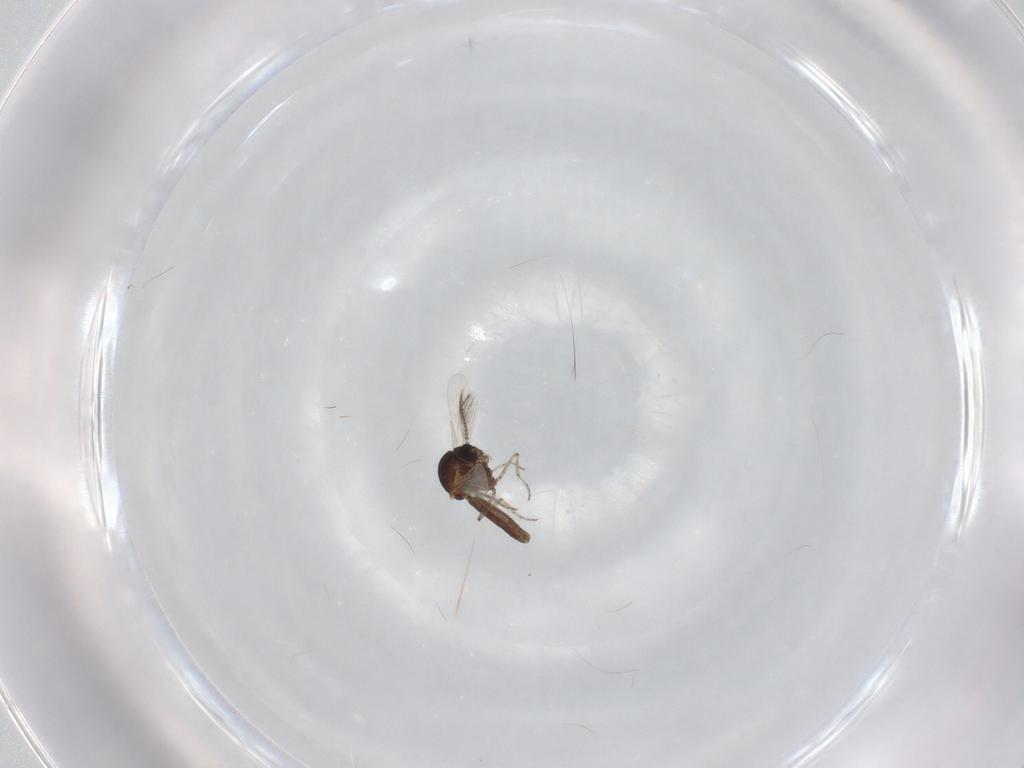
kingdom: Animalia
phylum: Arthropoda
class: Insecta
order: Diptera
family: Ceratopogonidae
